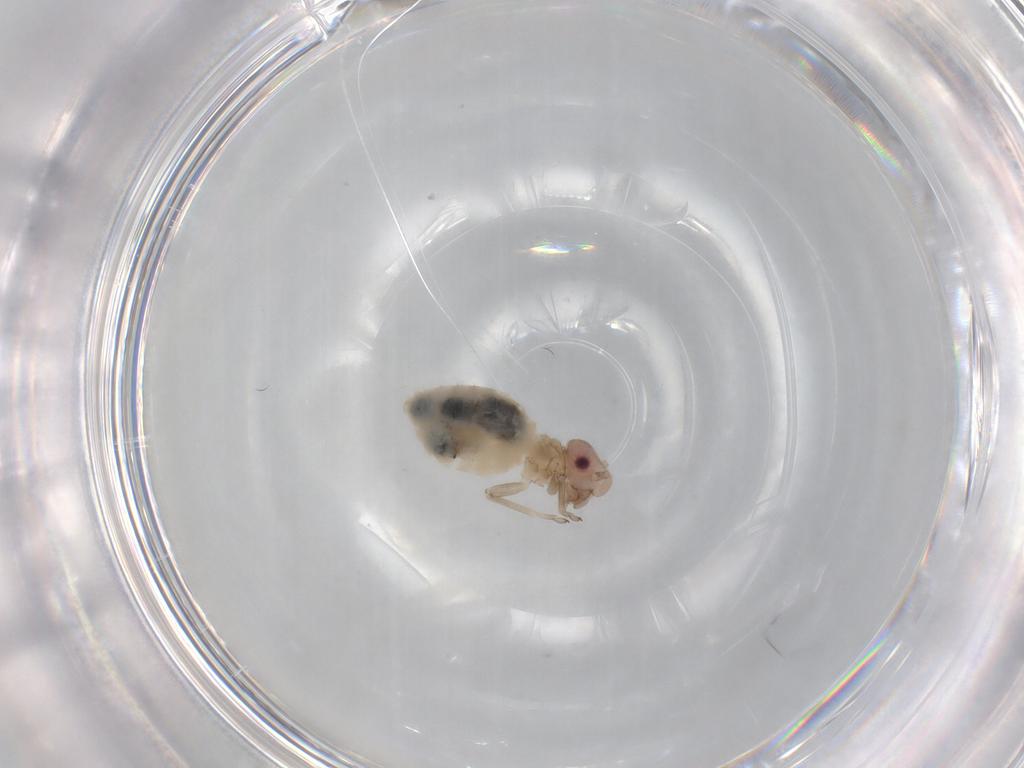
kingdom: Animalia
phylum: Arthropoda
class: Insecta
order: Psocodea
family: Stenopsocidae
